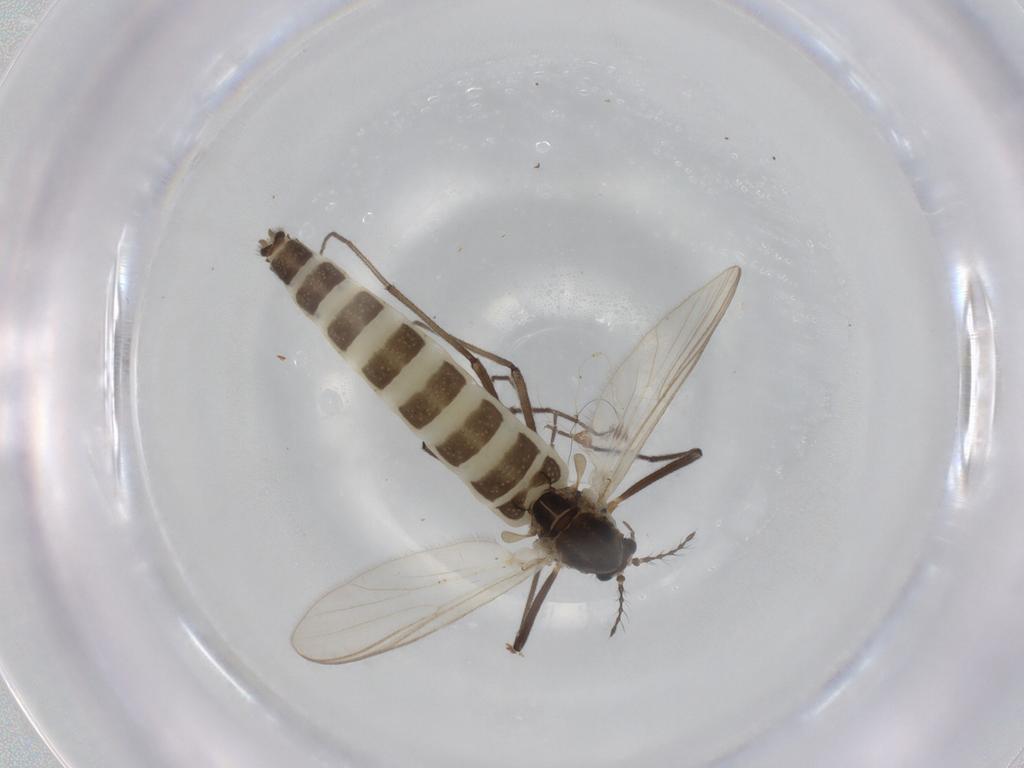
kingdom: Animalia
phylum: Arthropoda
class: Insecta
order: Diptera
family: Chironomidae
